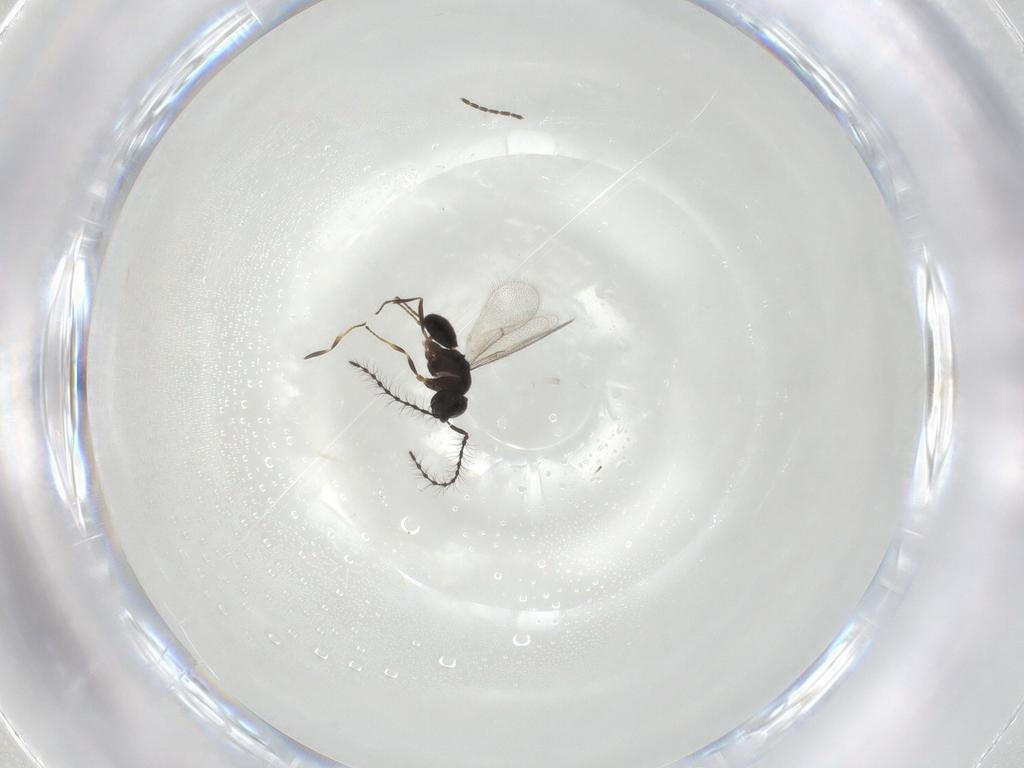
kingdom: Animalia
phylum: Arthropoda
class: Insecta
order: Hymenoptera
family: Scelionidae
